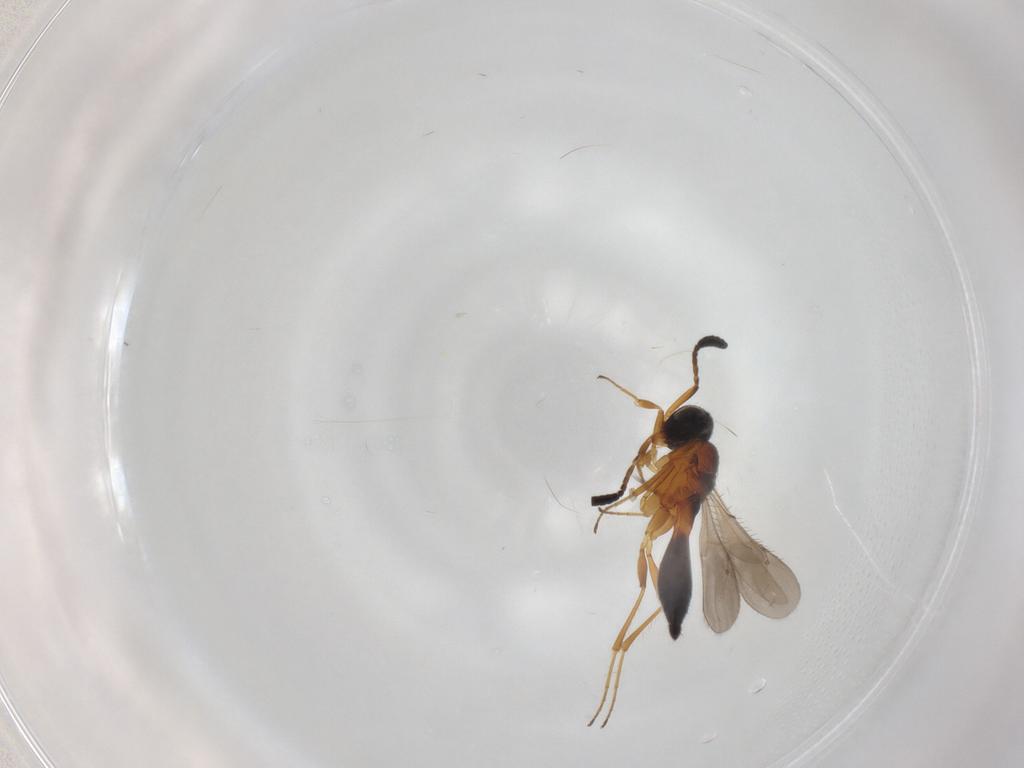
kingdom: Animalia
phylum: Arthropoda
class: Insecta
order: Hymenoptera
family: Scelionidae
